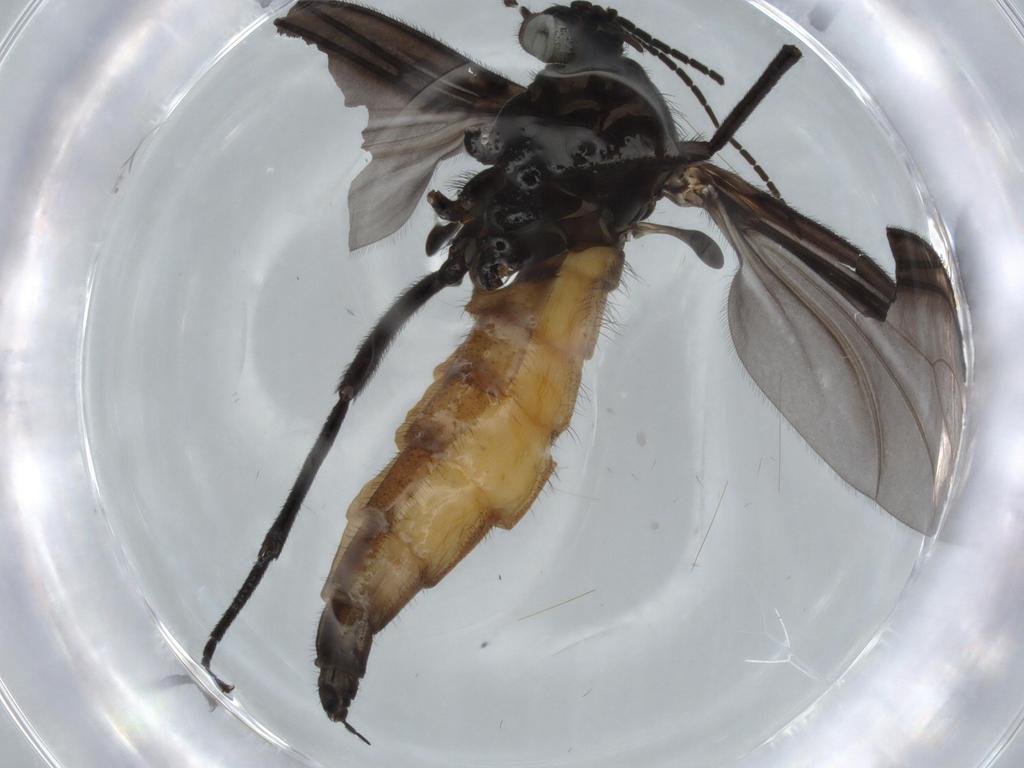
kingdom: Animalia
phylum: Arthropoda
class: Insecta
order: Diptera
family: Sciaridae
